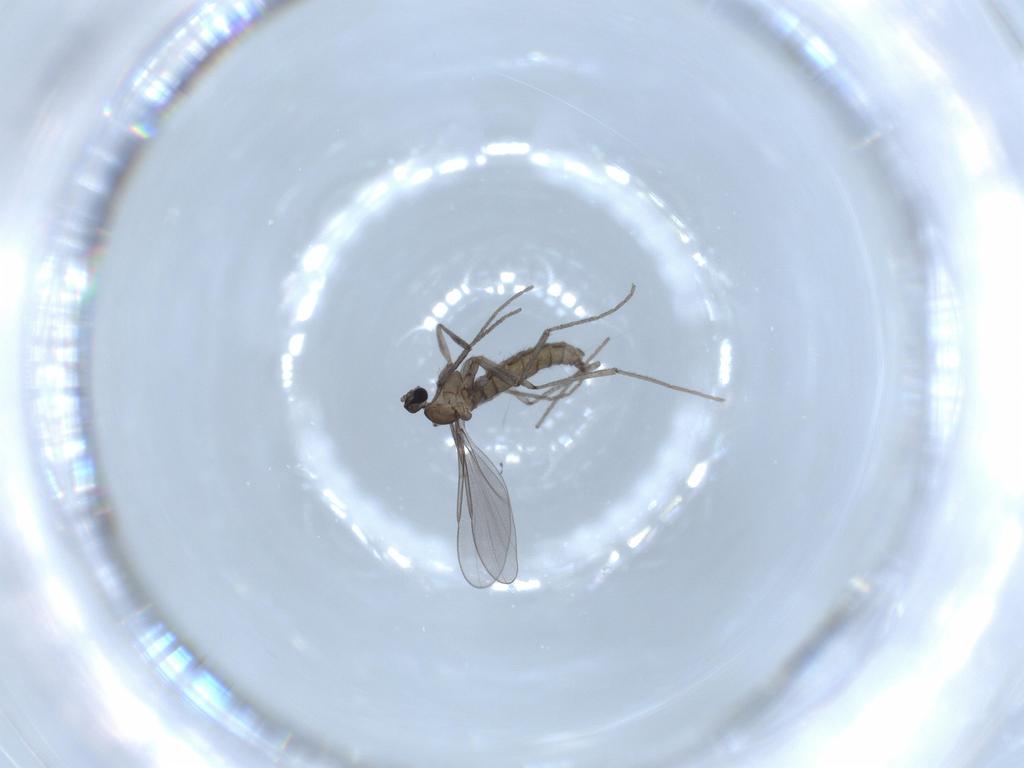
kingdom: Animalia
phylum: Arthropoda
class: Insecta
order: Diptera
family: Cecidomyiidae
